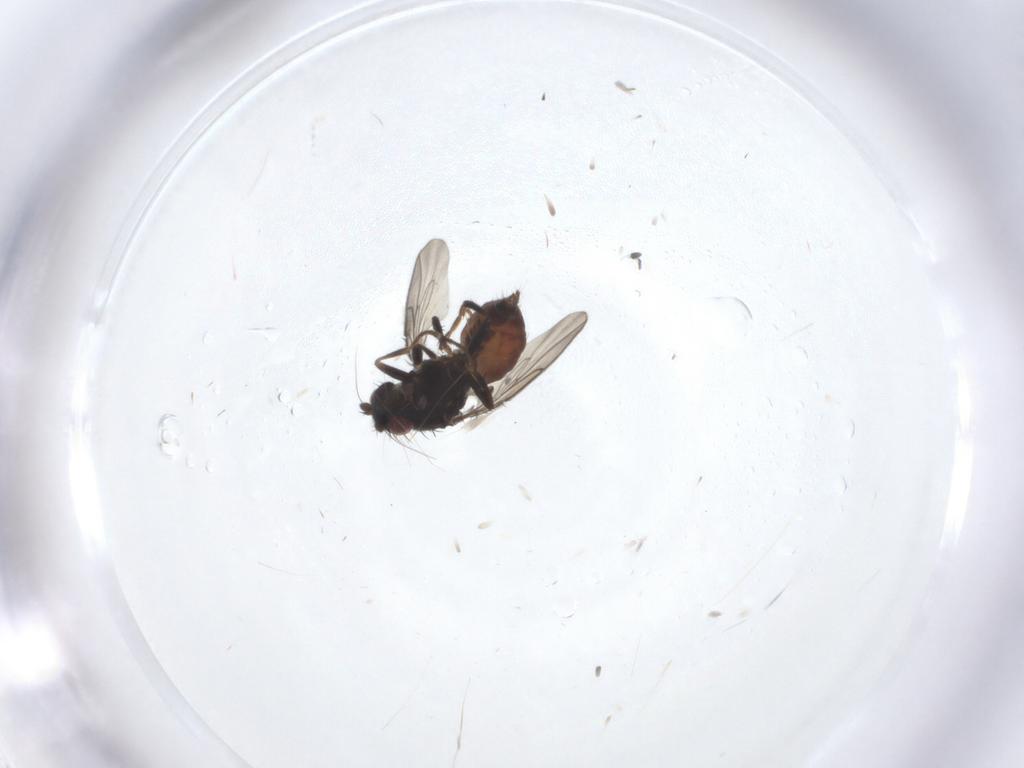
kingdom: Animalia
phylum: Arthropoda
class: Insecta
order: Diptera
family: Sphaeroceridae
